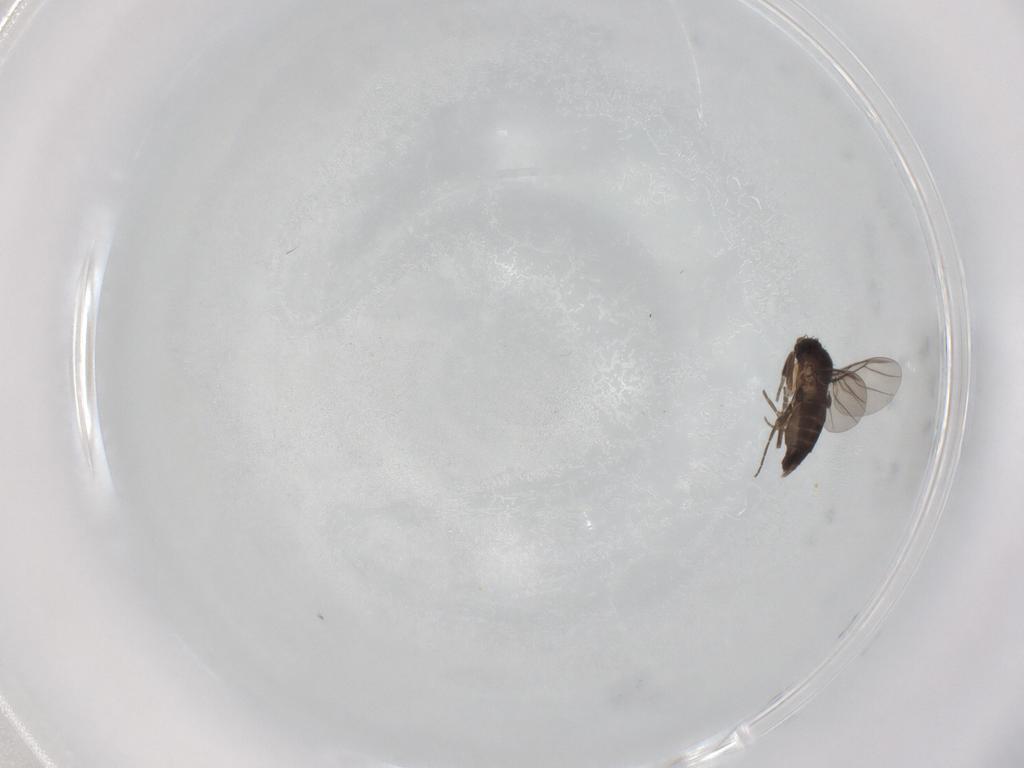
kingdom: Animalia
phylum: Arthropoda
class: Insecta
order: Diptera
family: Phoridae
